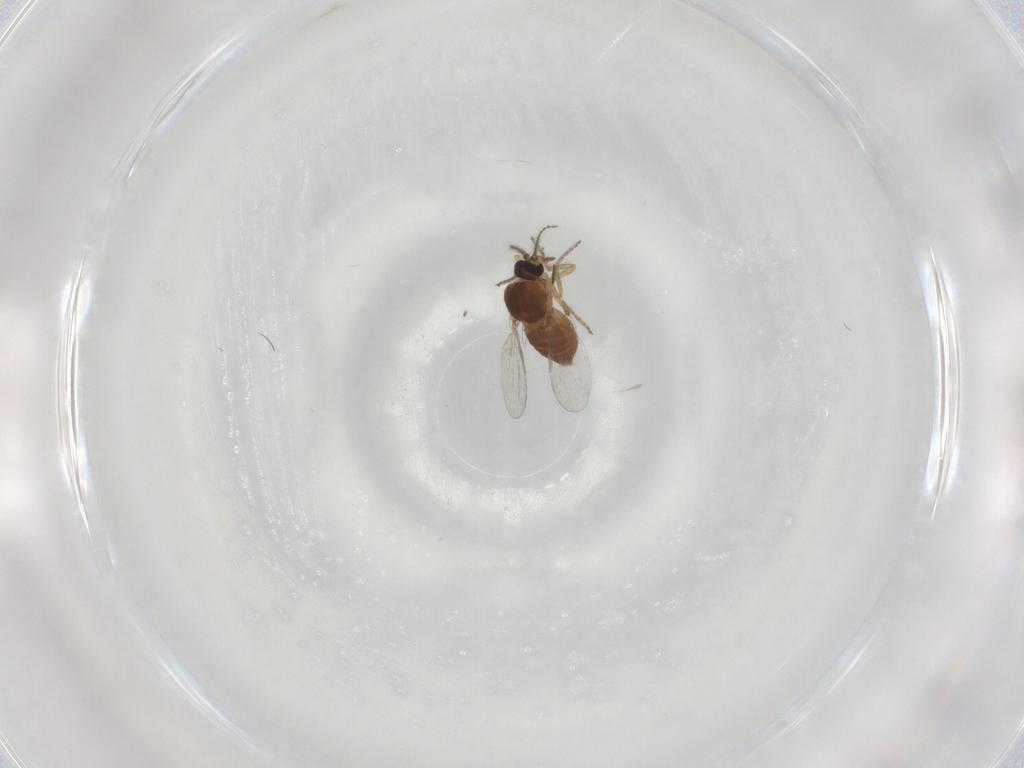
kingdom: Animalia
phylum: Arthropoda
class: Insecta
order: Diptera
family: Ceratopogonidae
